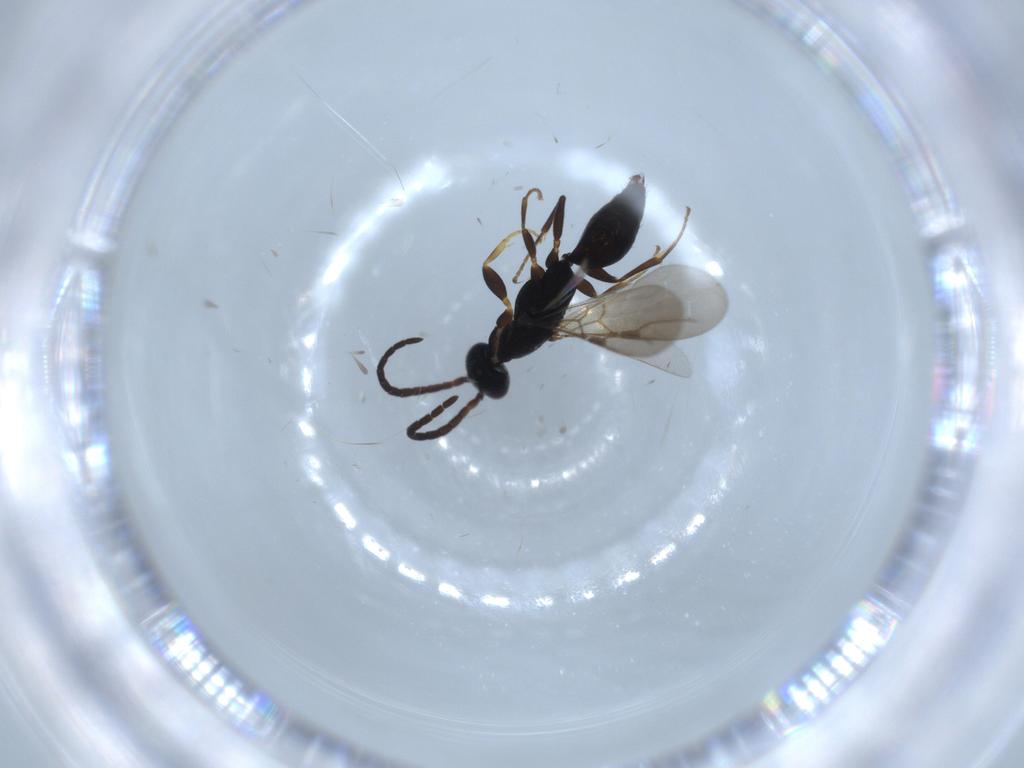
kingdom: Animalia
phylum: Arthropoda
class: Insecta
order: Hymenoptera
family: Bethylidae
